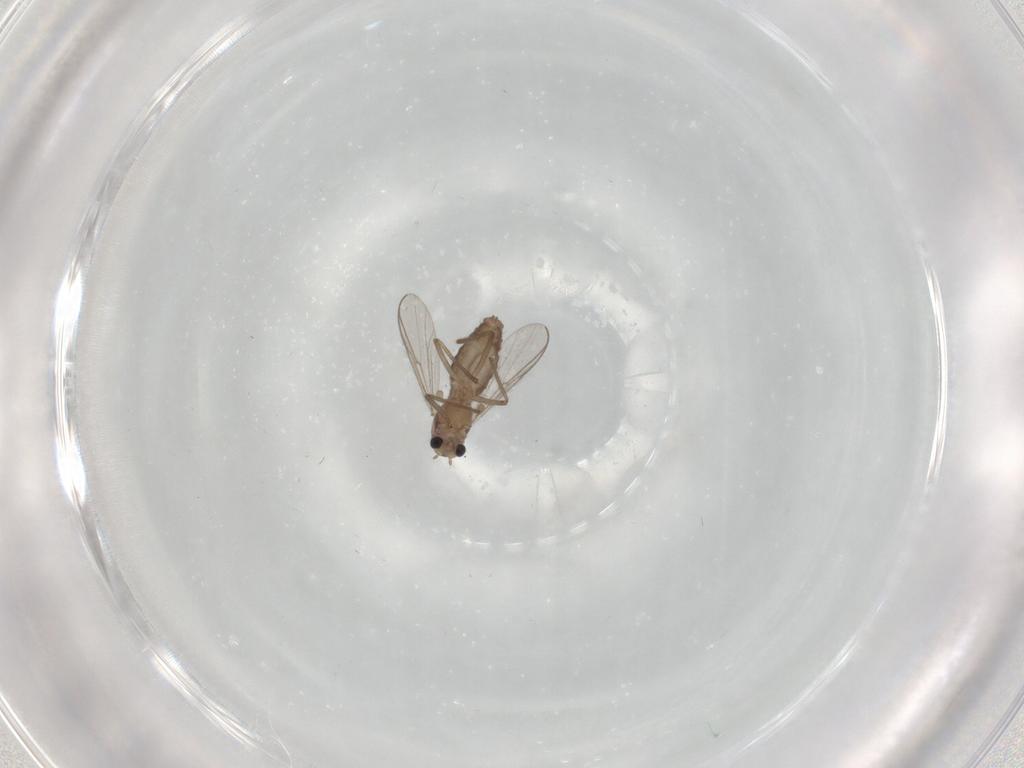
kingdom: Animalia
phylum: Arthropoda
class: Insecta
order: Diptera
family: Chironomidae
